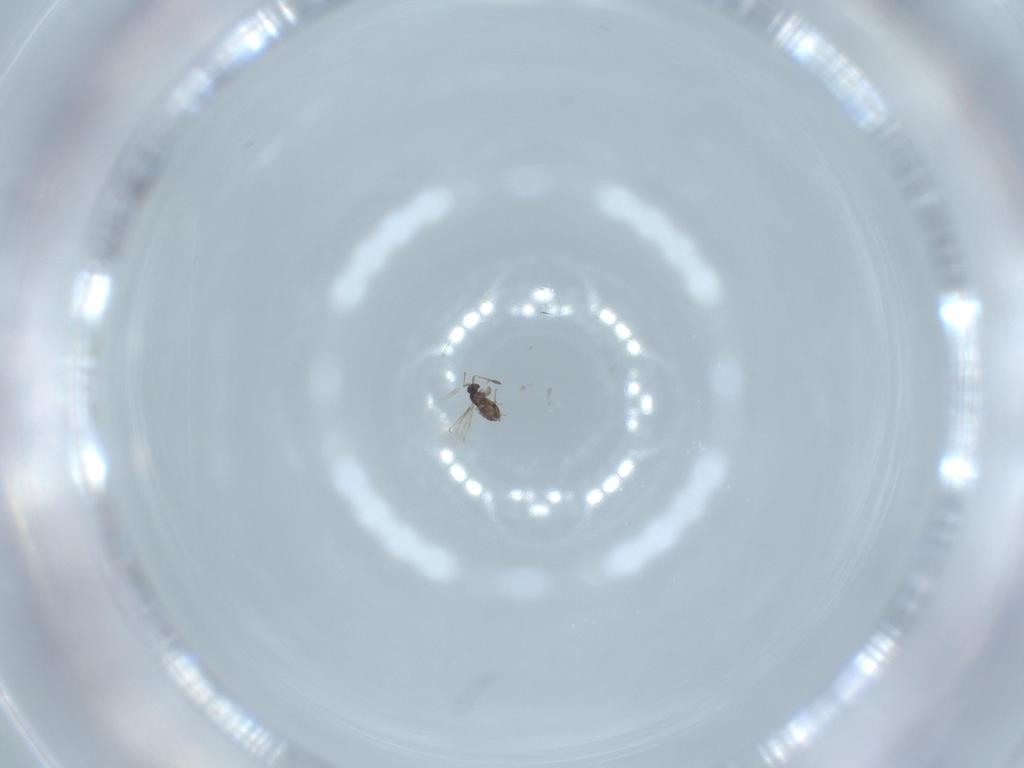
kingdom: Animalia
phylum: Arthropoda
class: Insecta
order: Hymenoptera
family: Formicidae
